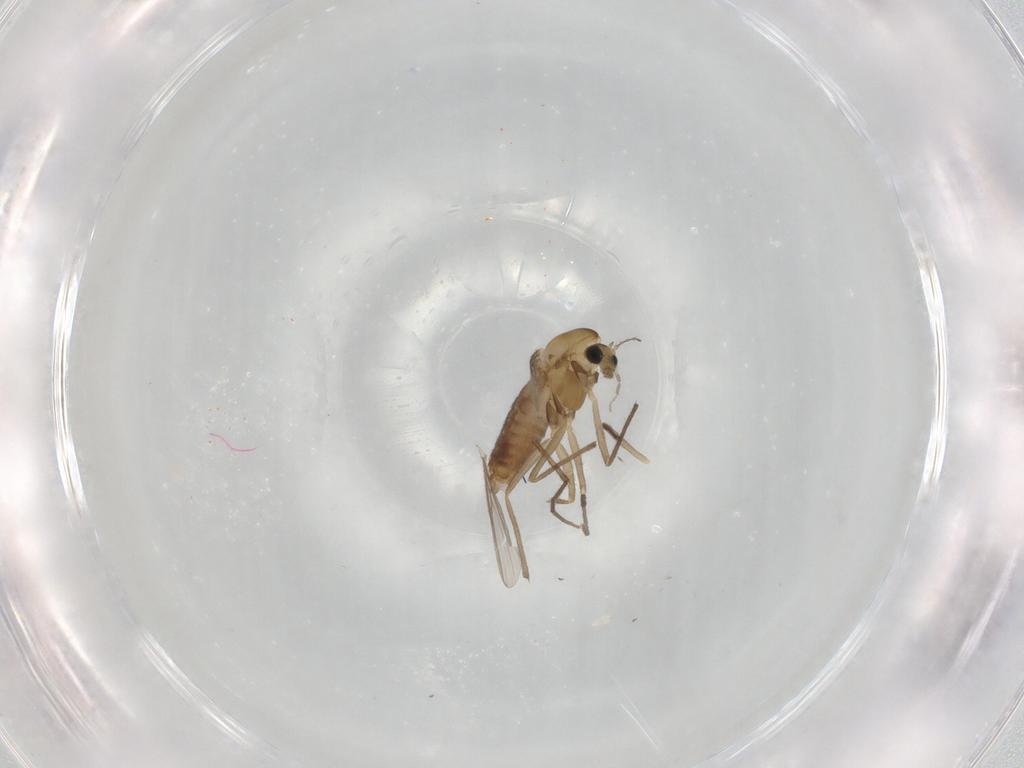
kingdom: Animalia
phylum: Arthropoda
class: Insecta
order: Diptera
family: Chironomidae
